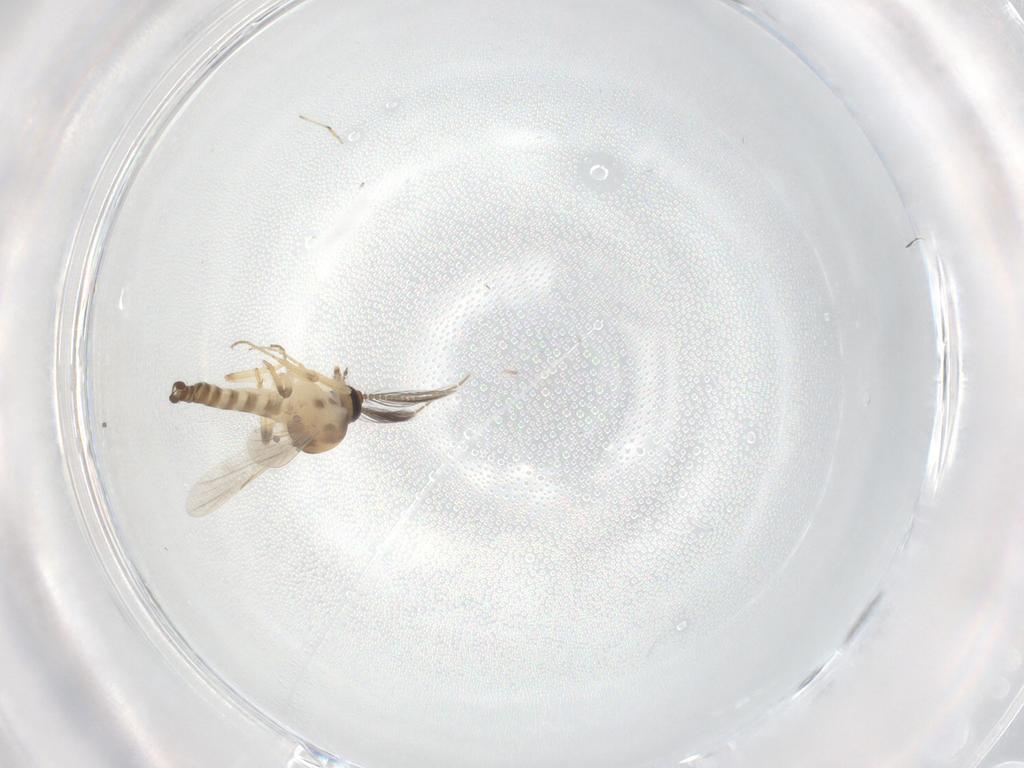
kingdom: Animalia
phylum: Arthropoda
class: Insecta
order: Diptera
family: Ceratopogonidae
